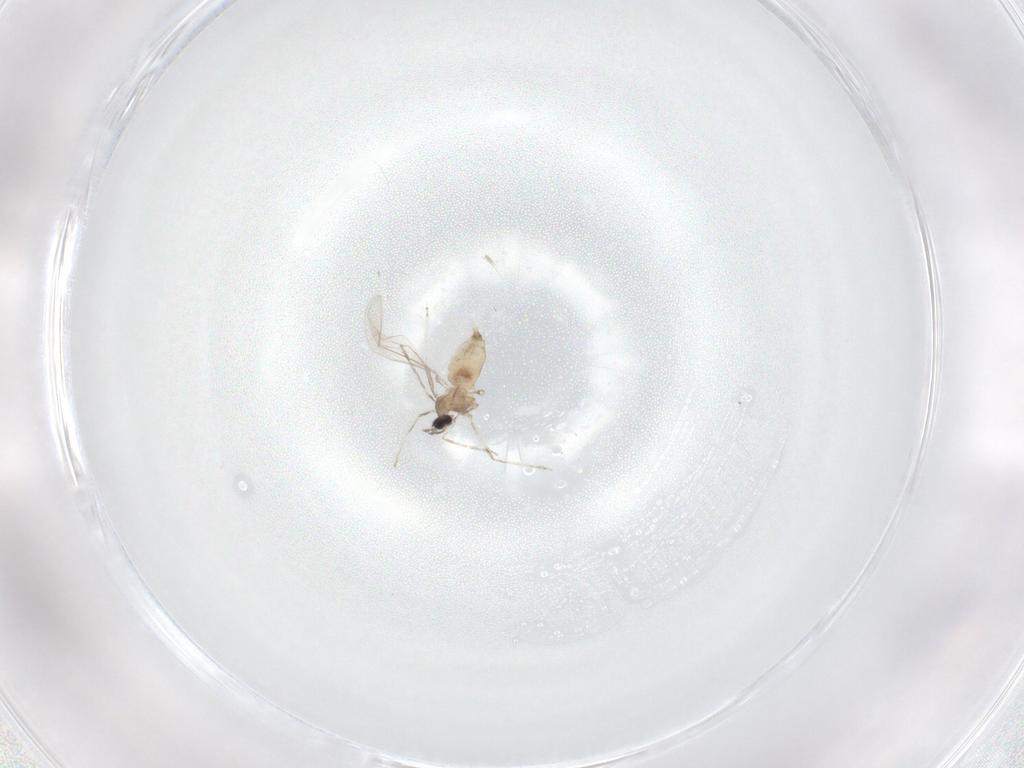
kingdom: Animalia
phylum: Arthropoda
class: Insecta
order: Diptera
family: Cecidomyiidae
